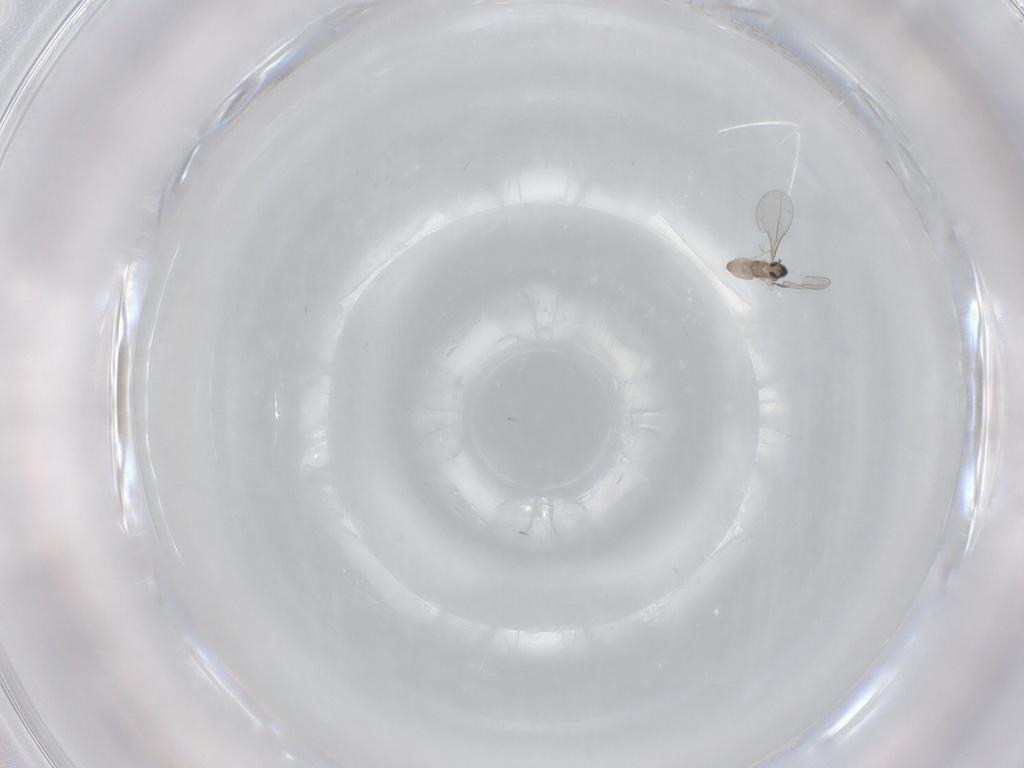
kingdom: Animalia
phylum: Arthropoda
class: Insecta
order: Diptera
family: Cecidomyiidae
